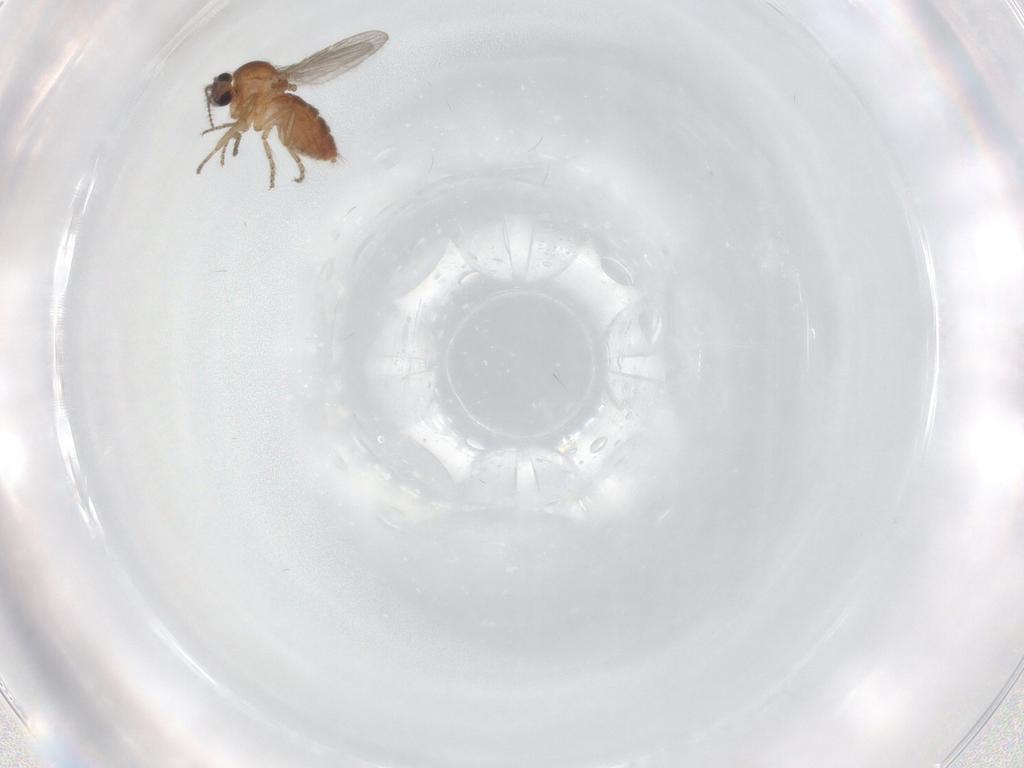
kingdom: Animalia
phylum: Arthropoda
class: Insecta
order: Diptera
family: Ceratopogonidae
